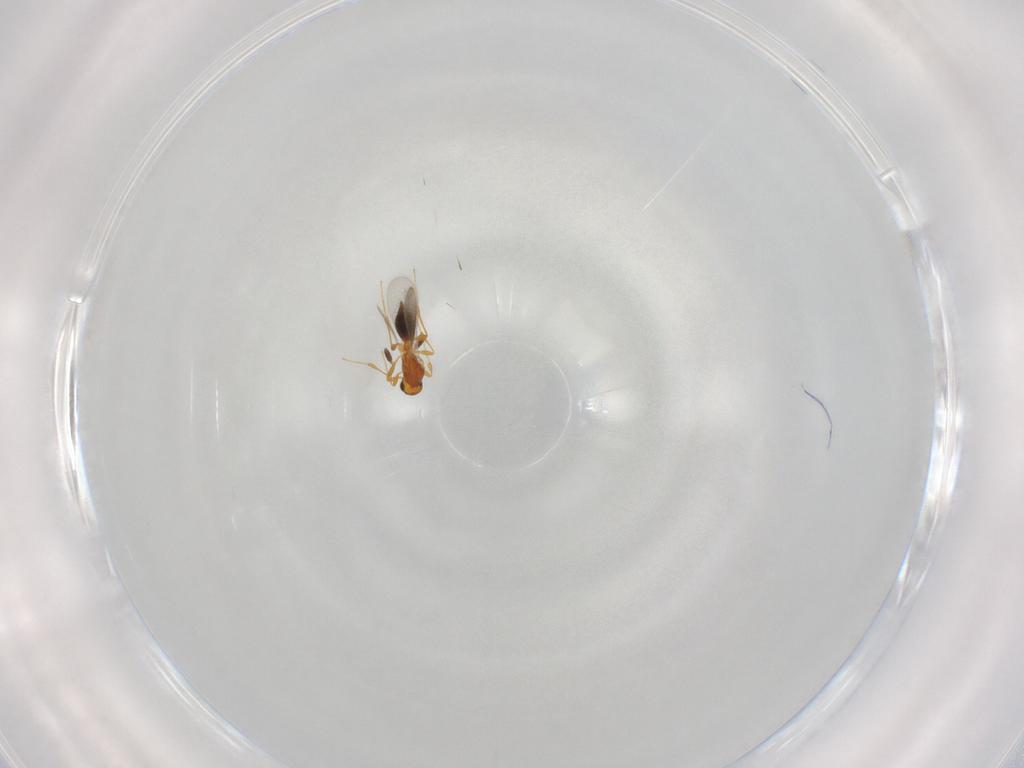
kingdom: Animalia
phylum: Arthropoda
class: Insecta
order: Hymenoptera
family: Platygastridae
